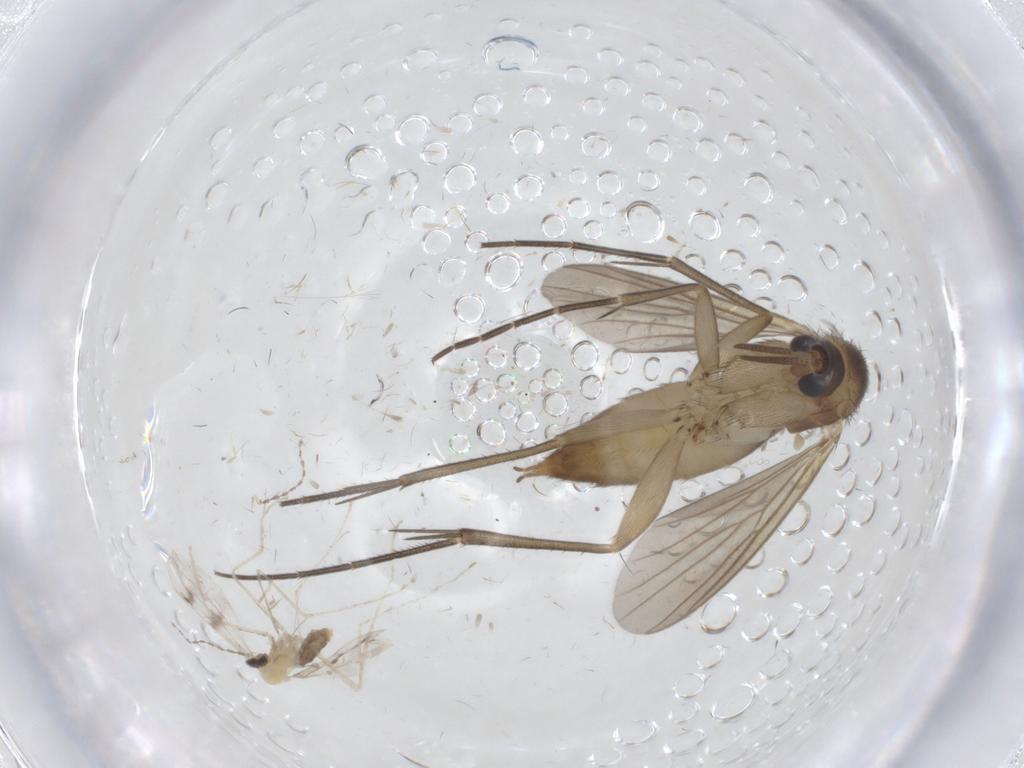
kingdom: Animalia
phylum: Arthropoda
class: Insecta
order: Diptera
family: Cecidomyiidae
